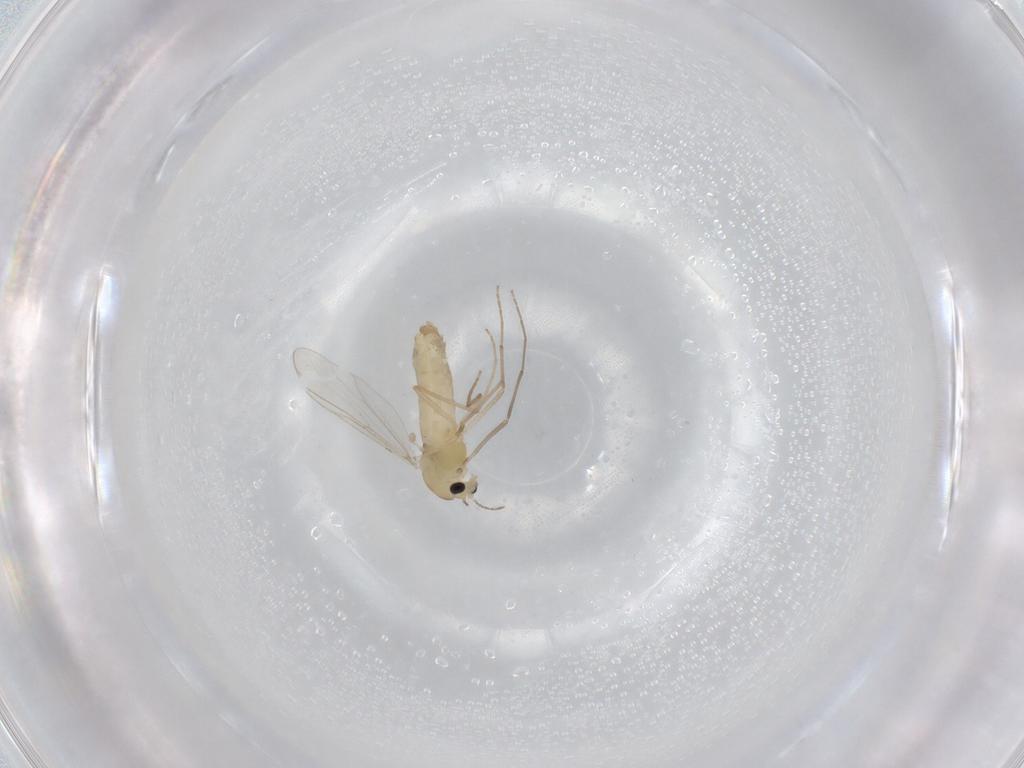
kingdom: Animalia
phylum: Arthropoda
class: Insecta
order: Diptera
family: Chironomidae
